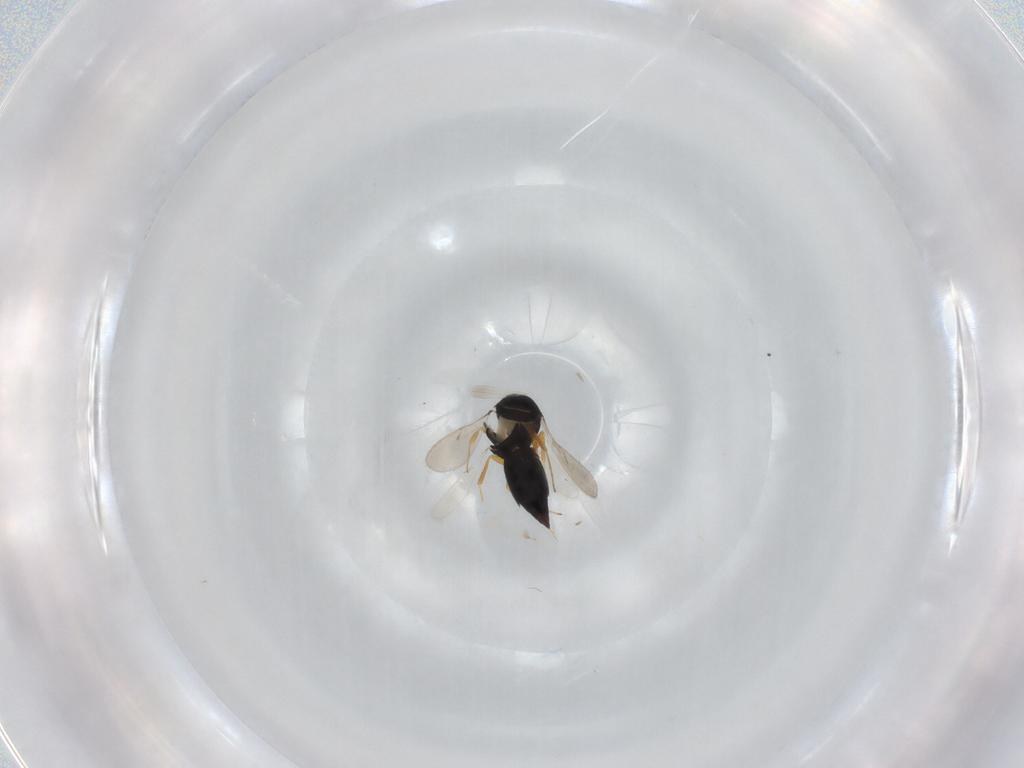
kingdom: Animalia
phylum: Arthropoda
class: Insecta
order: Hymenoptera
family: Scelionidae
